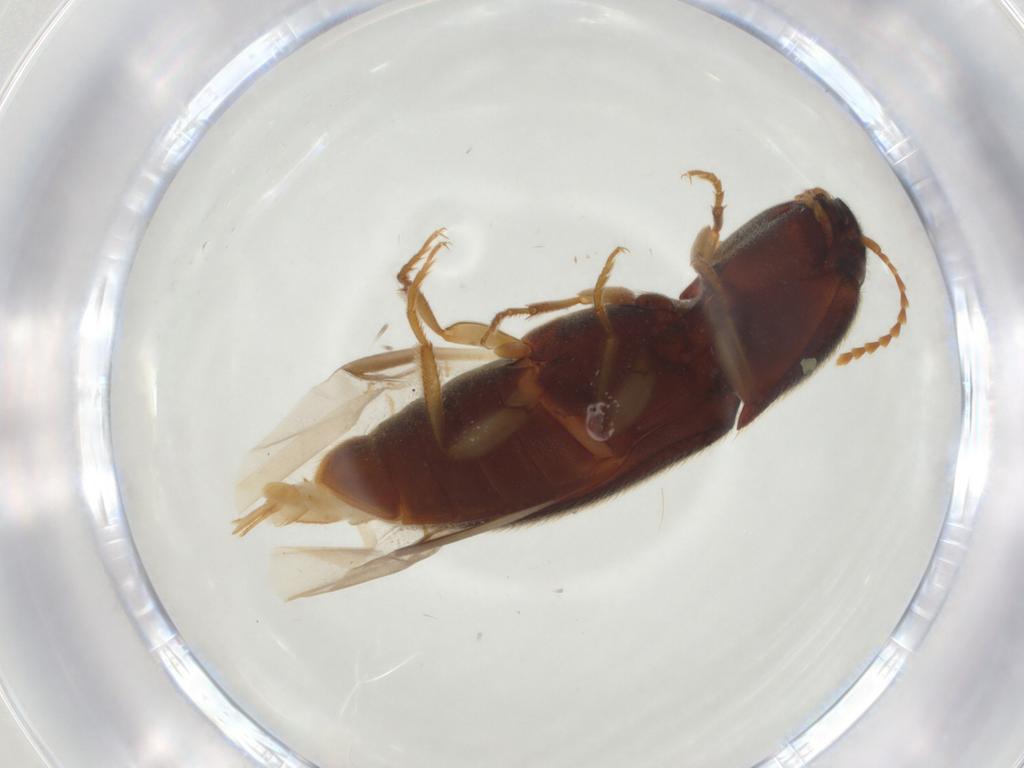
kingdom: Animalia
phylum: Arthropoda
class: Insecta
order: Coleoptera
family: Elateridae
